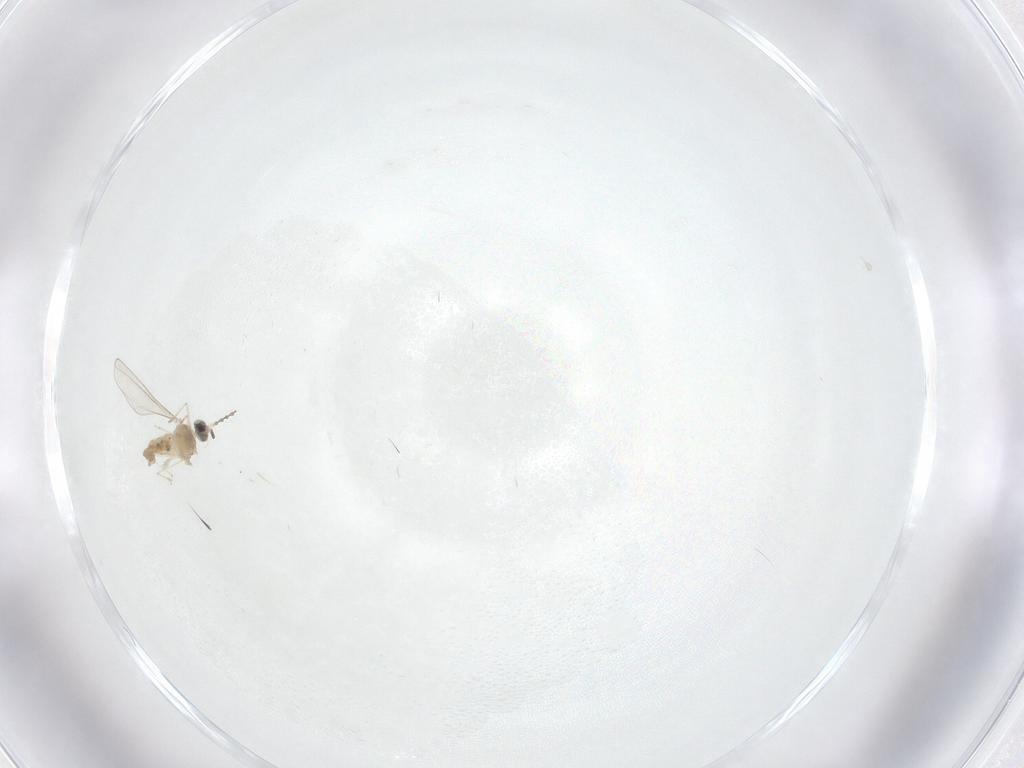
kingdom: Animalia
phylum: Arthropoda
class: Insecta
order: Diptera
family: Cecidomyiidae
